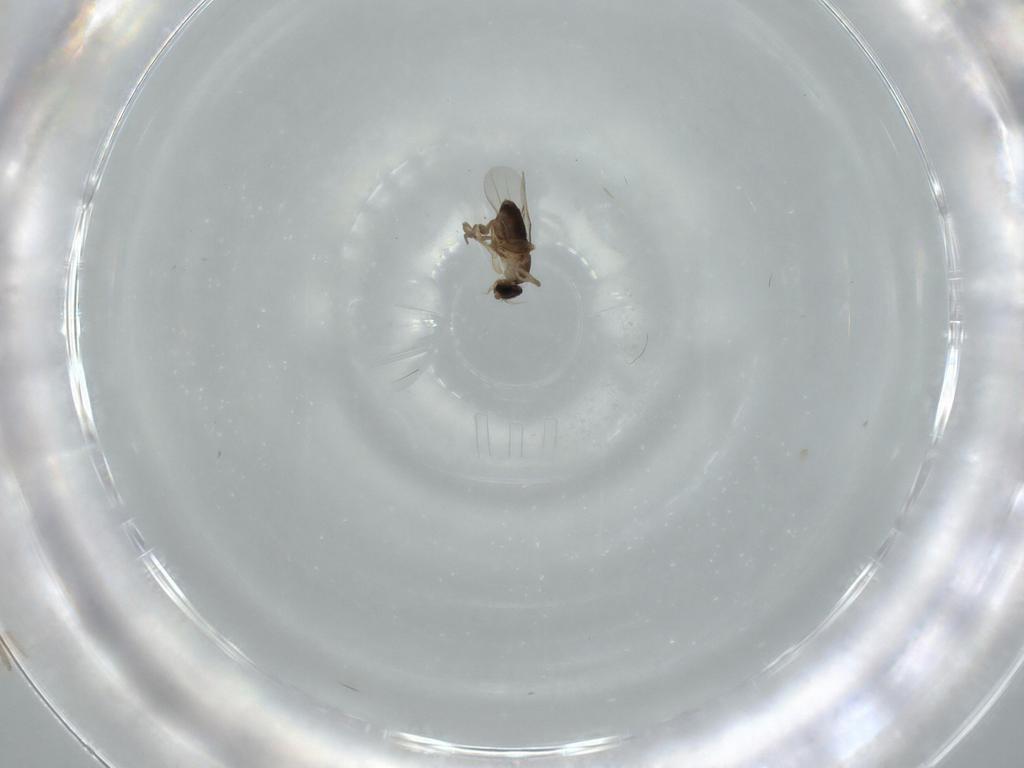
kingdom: Animalia
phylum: Arthropoda
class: Insecta
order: Diptera
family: Phoridae
